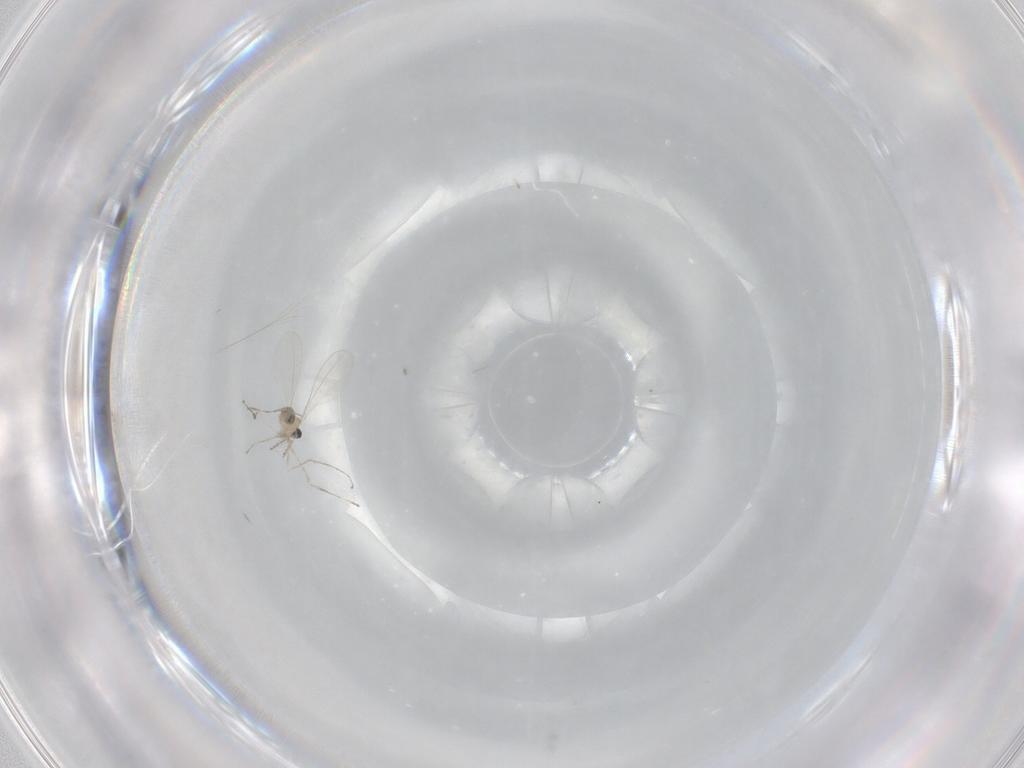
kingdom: Animalia
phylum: Arthropoda
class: Insecta
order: Diptera
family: Cecidomyiidae
